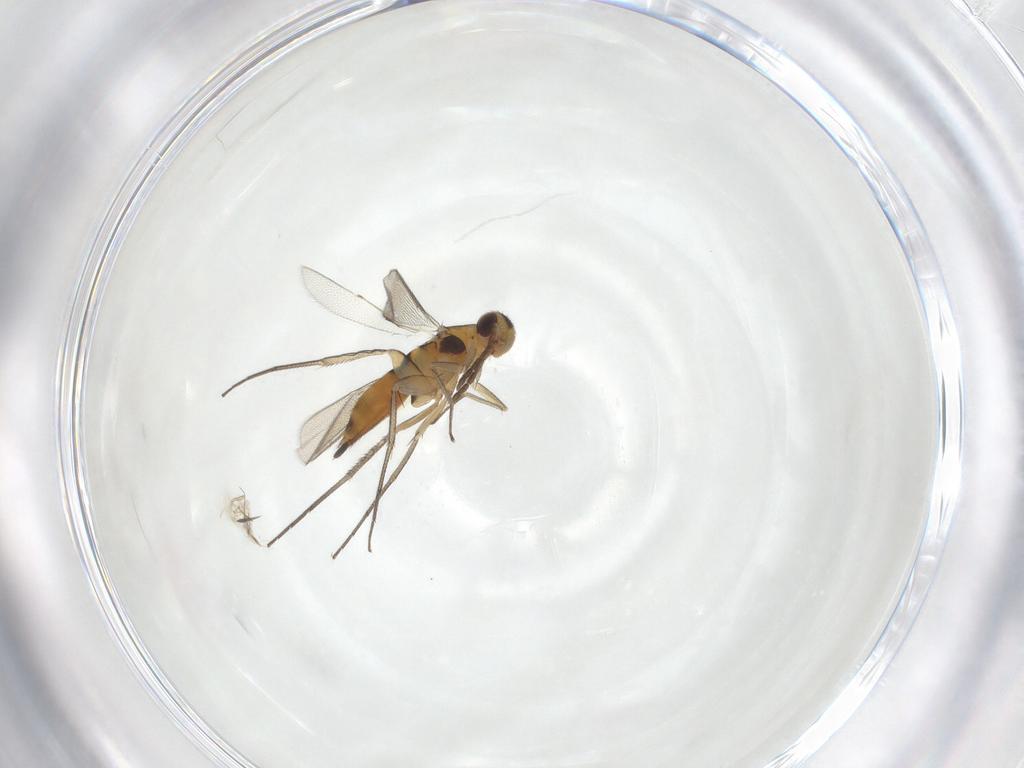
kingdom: Animalia
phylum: Arthropoda
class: Insecta
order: Hymenoptera
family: Eulophidae
